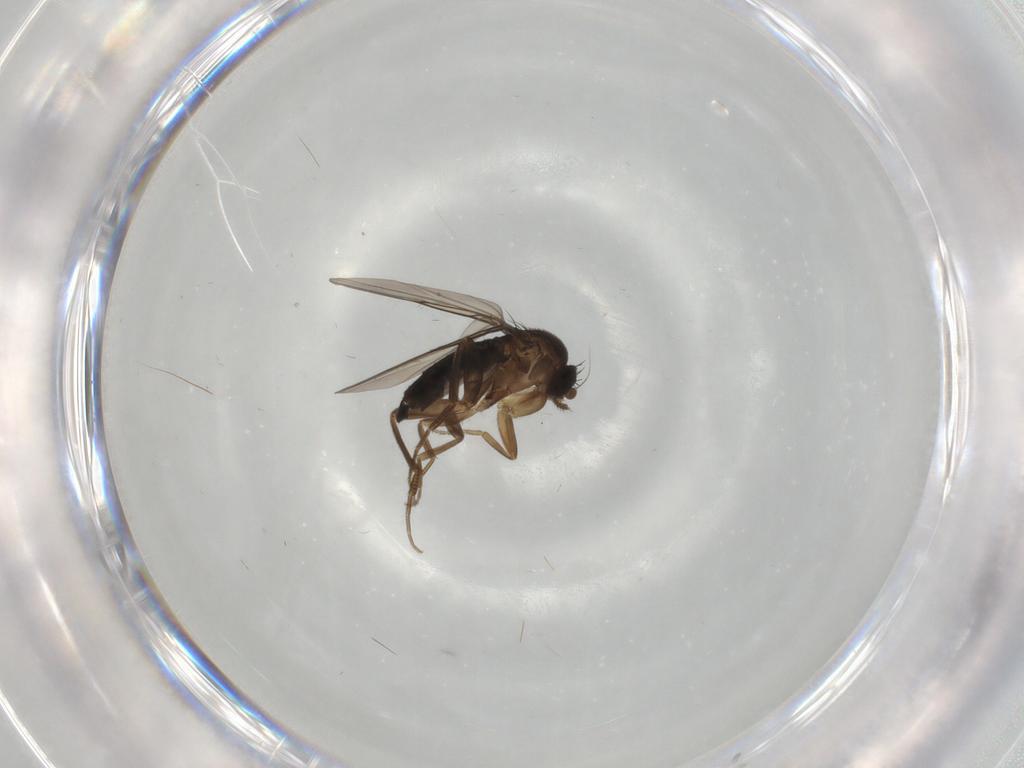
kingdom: Animalia
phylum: Arthropoda
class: Insecta
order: Diptera
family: Phoridae
